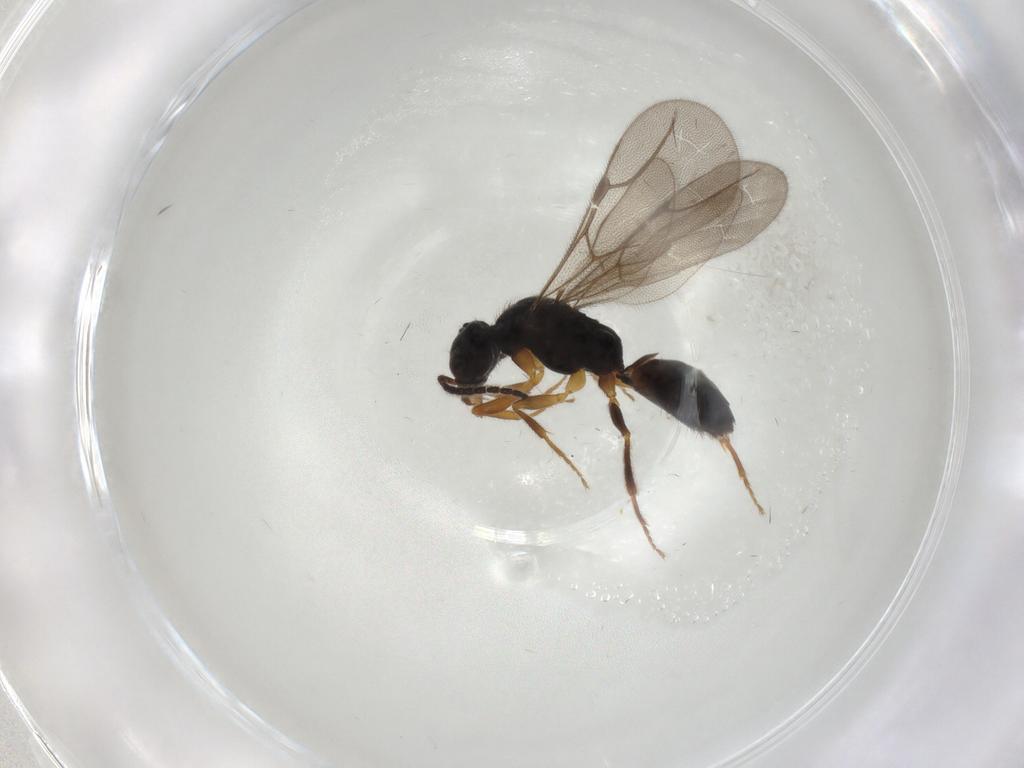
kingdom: Animalia
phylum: Arthropoda
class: Insecta
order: Hymenoptera
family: Bethylidae
